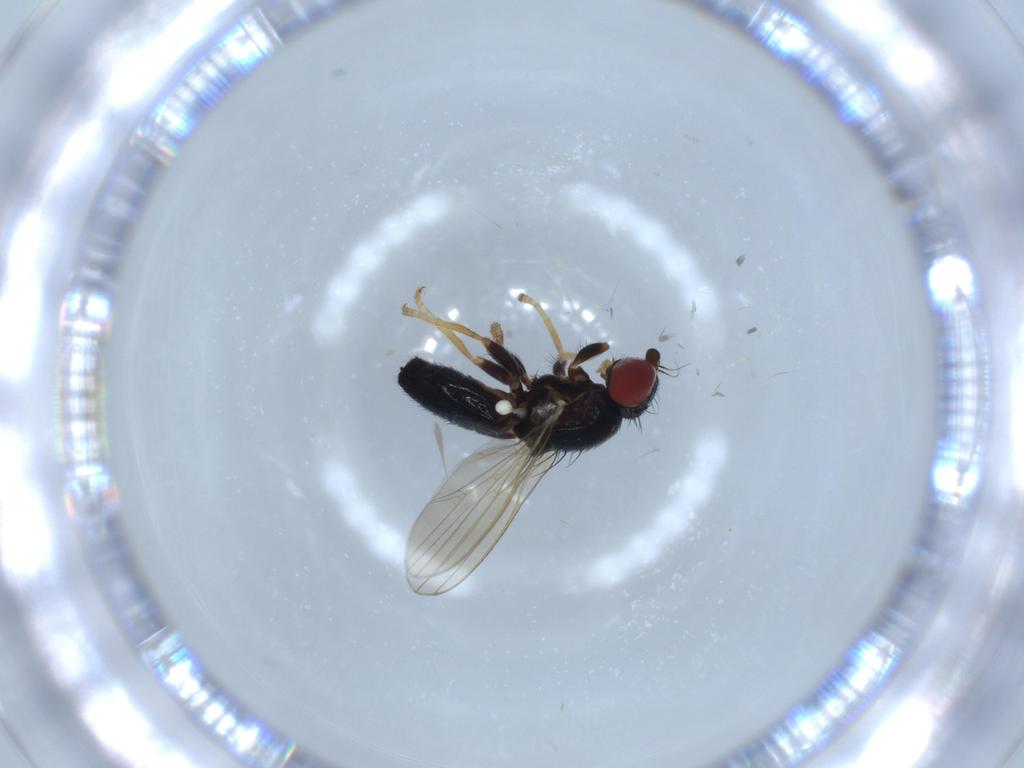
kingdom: Animalia
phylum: Arthropoda
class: Insecta
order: Diptera
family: Chamaemyiidae
